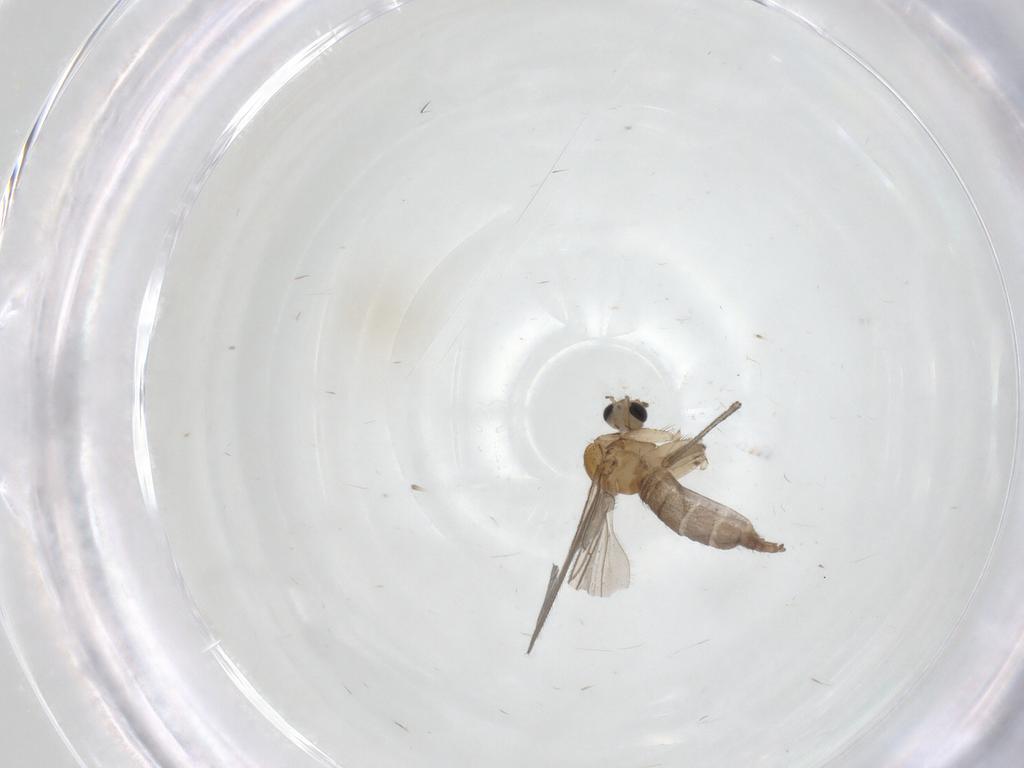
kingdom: Animalia
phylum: Arthropoda
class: Insecta
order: Diptera
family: Sciaridae
